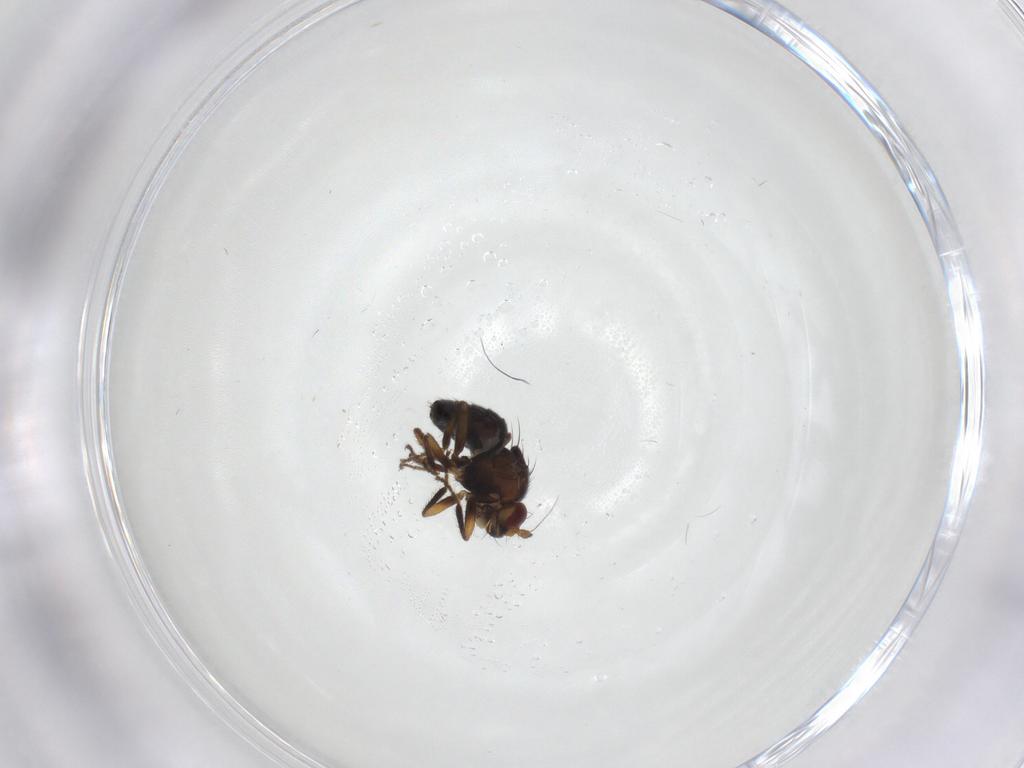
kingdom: Animalia
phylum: Arthropoda
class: Insecta
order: Diptera
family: Sphaeroceridae
